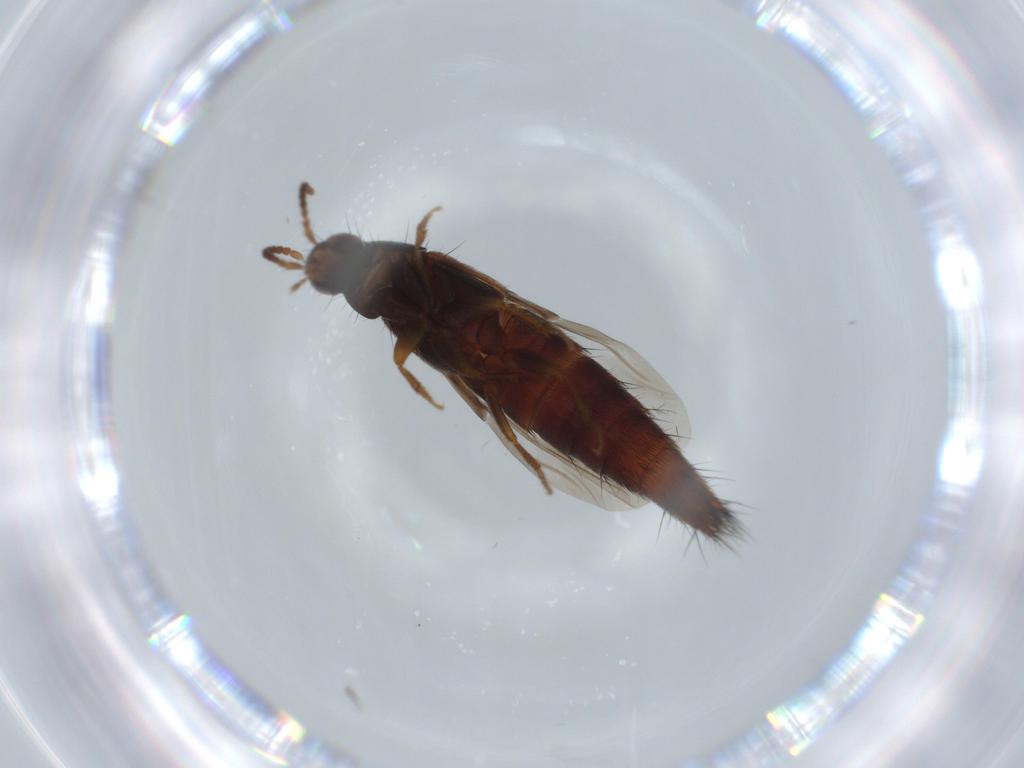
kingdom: Animalia
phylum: Arthropoda
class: Insecta
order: Coleoptera
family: Staphylinidae
